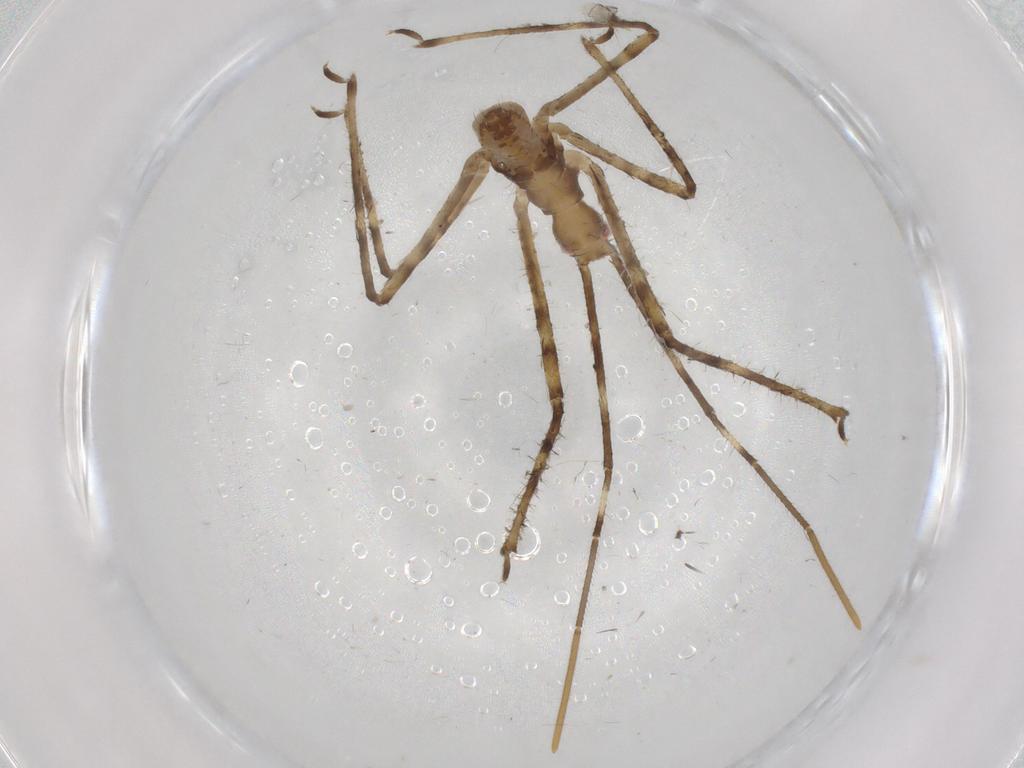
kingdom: Animalia
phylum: Arthropoda
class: Insecta
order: Hemiptera
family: Reduviidae
